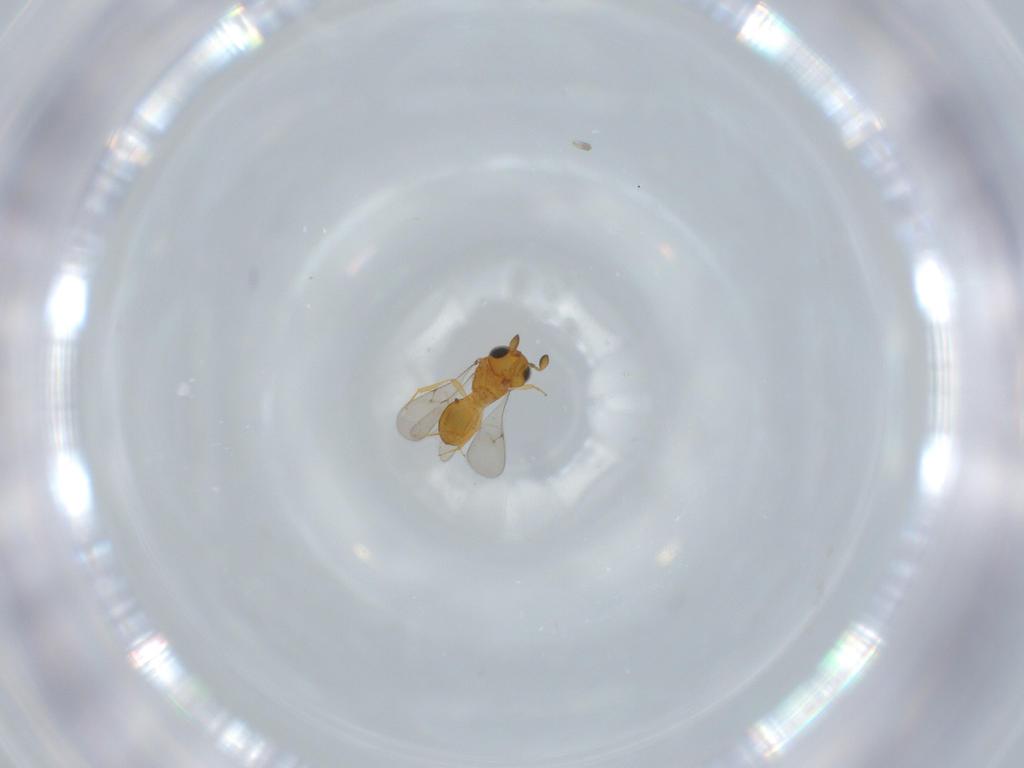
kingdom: Animalia
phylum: Arthropoda
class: Insecta
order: Hymenoptera
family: Scelionidae
